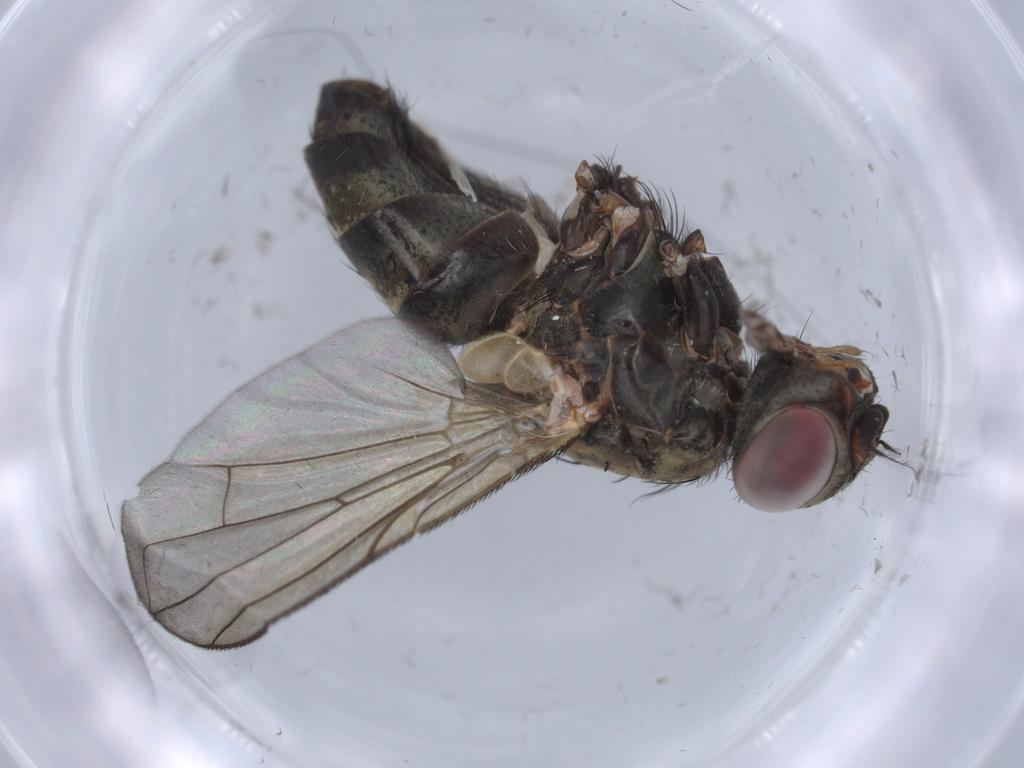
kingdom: Animalia
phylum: Arthropoda
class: Insecta
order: Diptera
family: Calliphoridae
